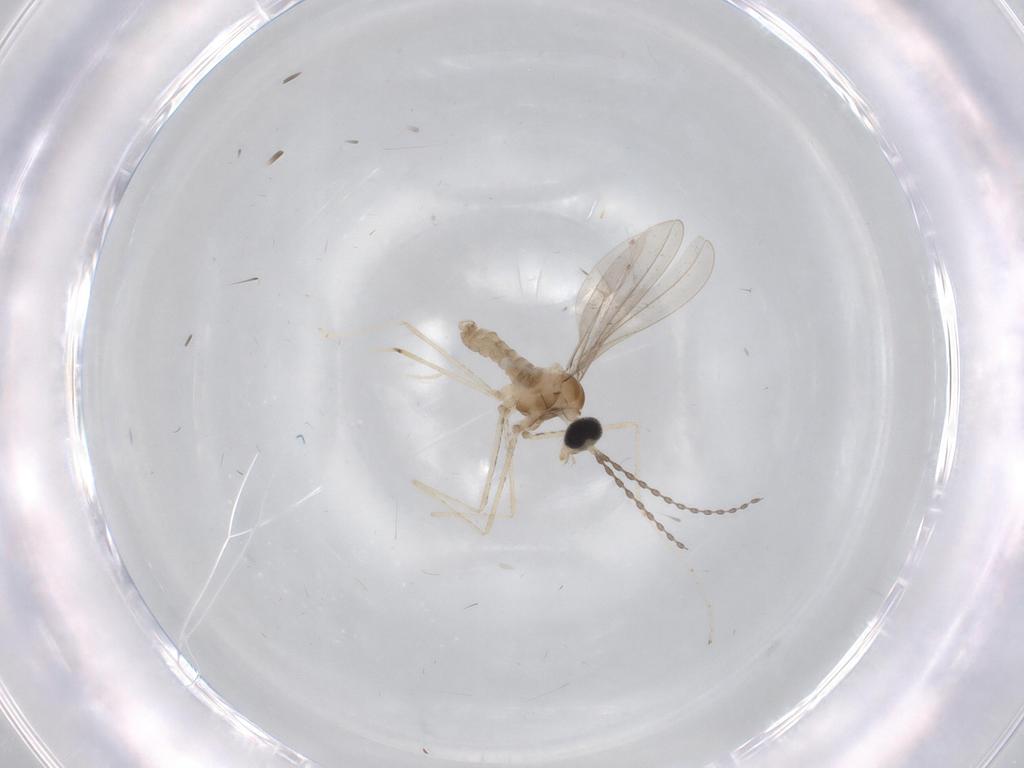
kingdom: Animalia
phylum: Arthropoda
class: Insecta
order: Diptera
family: Cecidomyiidae
